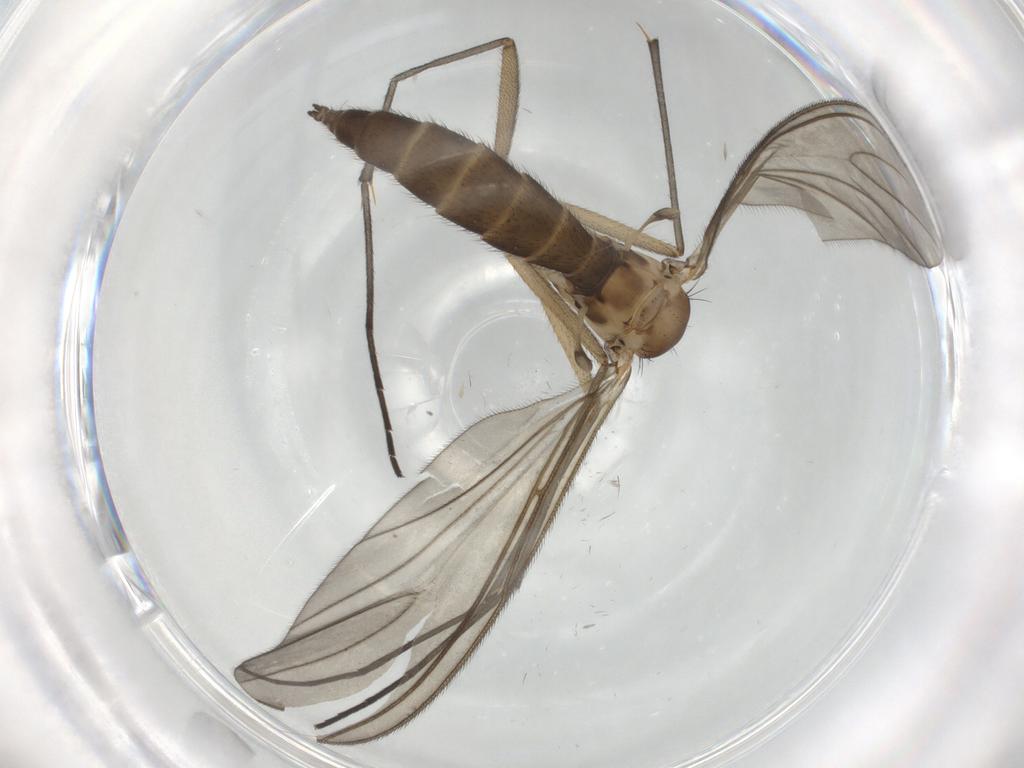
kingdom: Animalia
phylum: Arthropoda
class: Insecta
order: Diptera
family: Sciaridae
